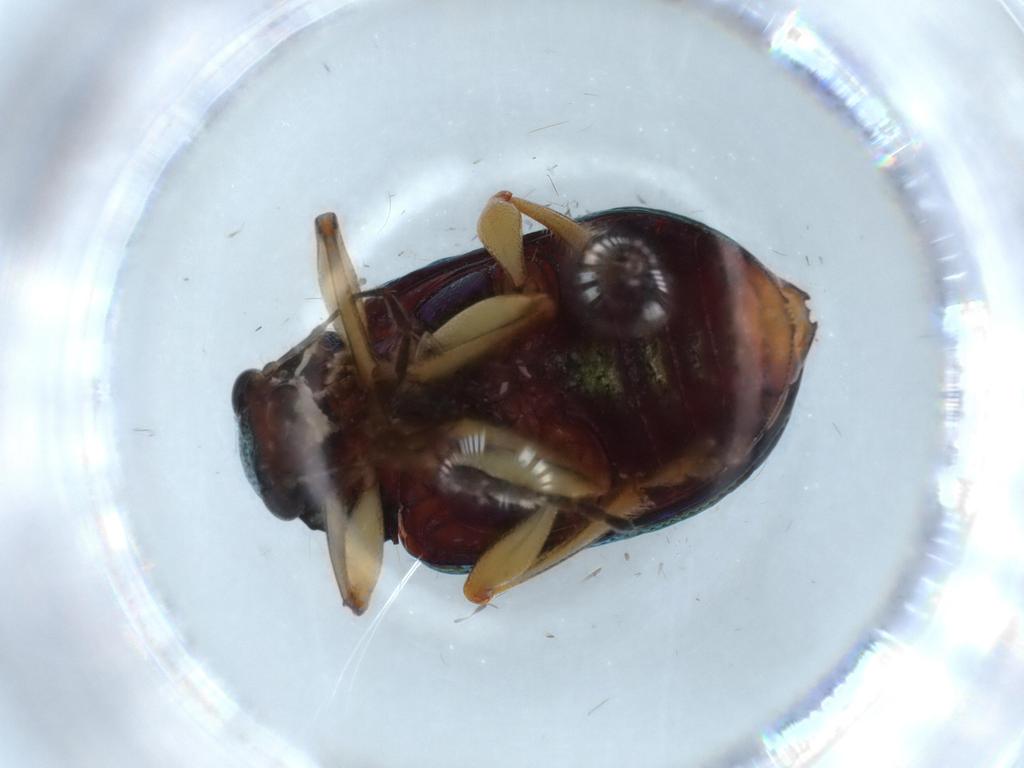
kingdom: Animalia
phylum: Arthropoda
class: Insecta
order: Coleoptera
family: Chrysomelidae
